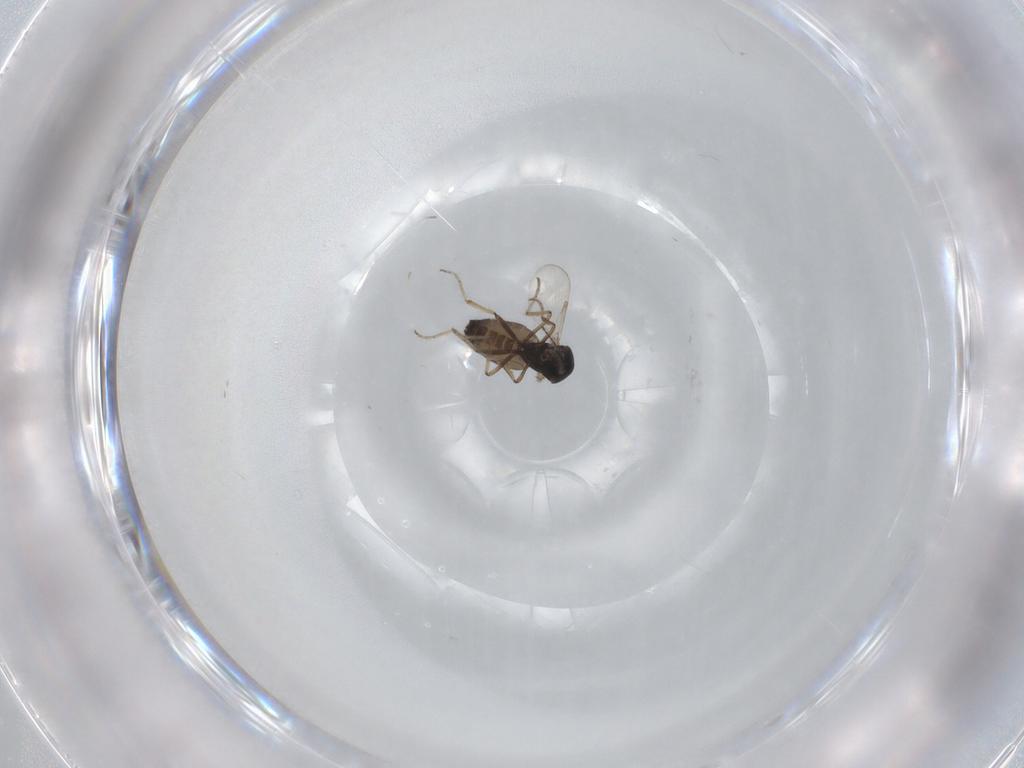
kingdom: Animalia
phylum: Arthropoda
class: Insecta
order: Diptera
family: Ceratopogonidae
